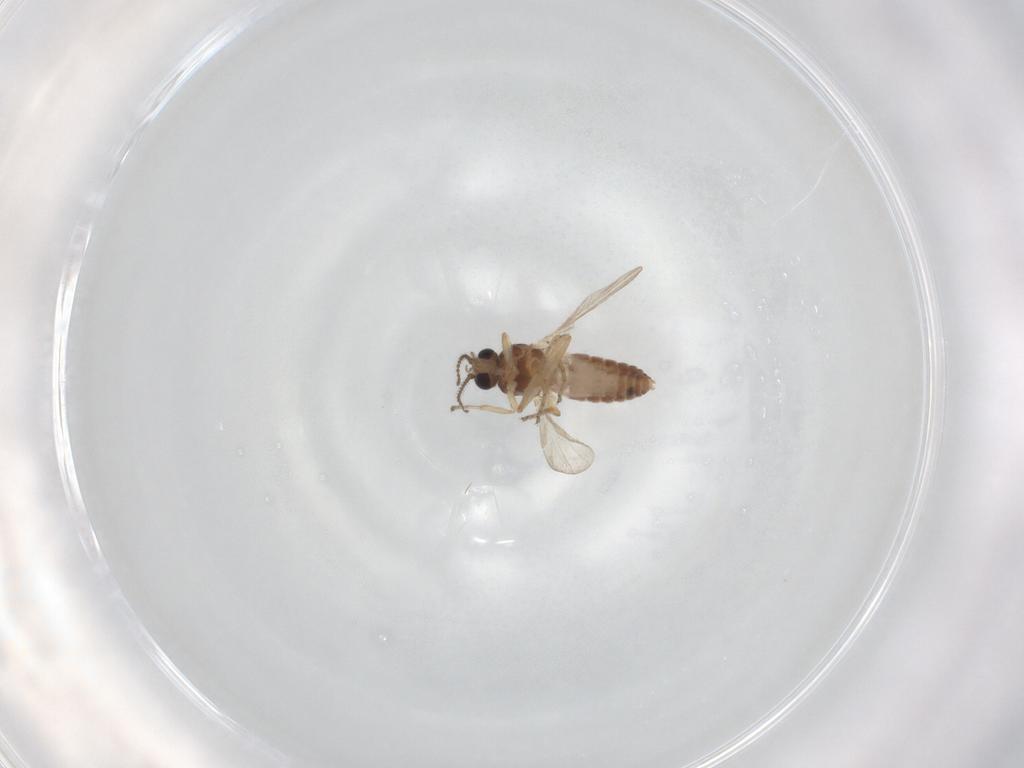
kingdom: Animalia
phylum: Arthropoda
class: Insecta
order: Diptera
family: Ceratopogonidae
